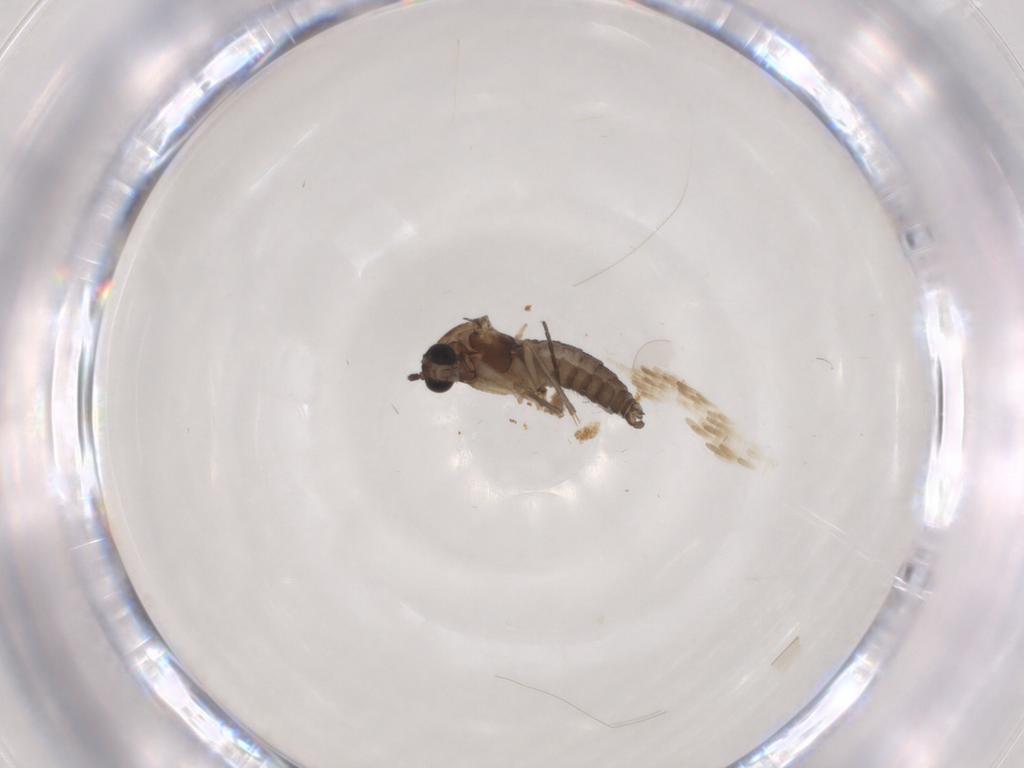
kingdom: Animalia
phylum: Arthropoda
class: Insecta
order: Diptera
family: Sciaridae
